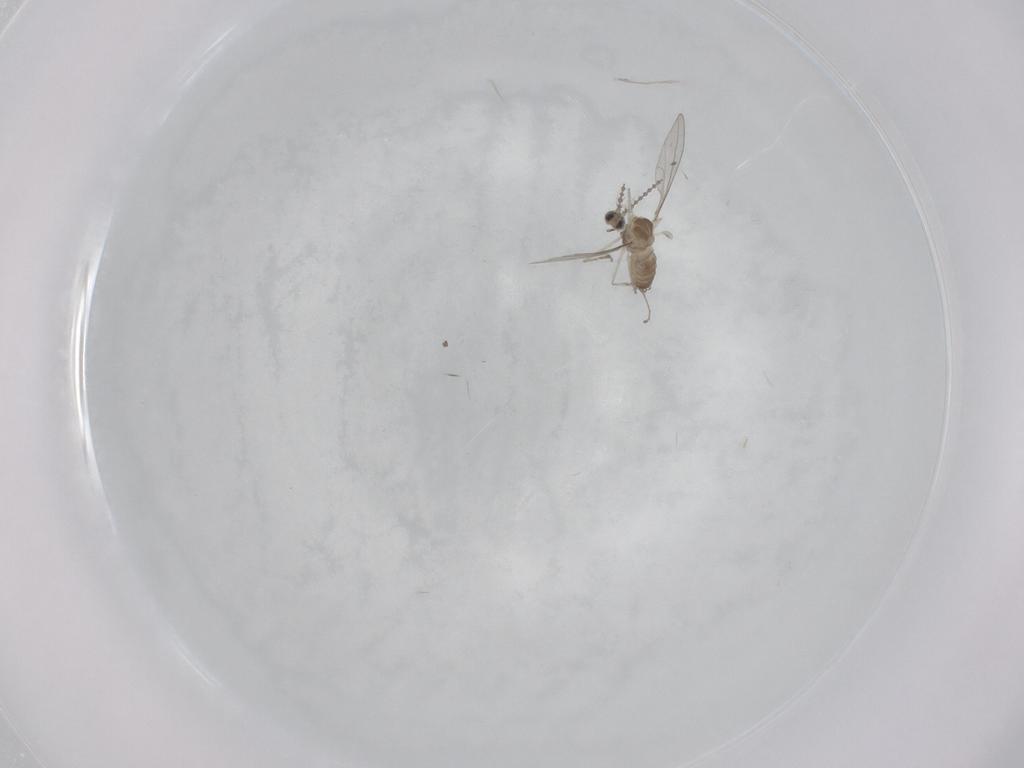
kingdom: Animalia
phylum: Arthropoda
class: Insecta
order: Diptera
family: Cecidomyiidae
